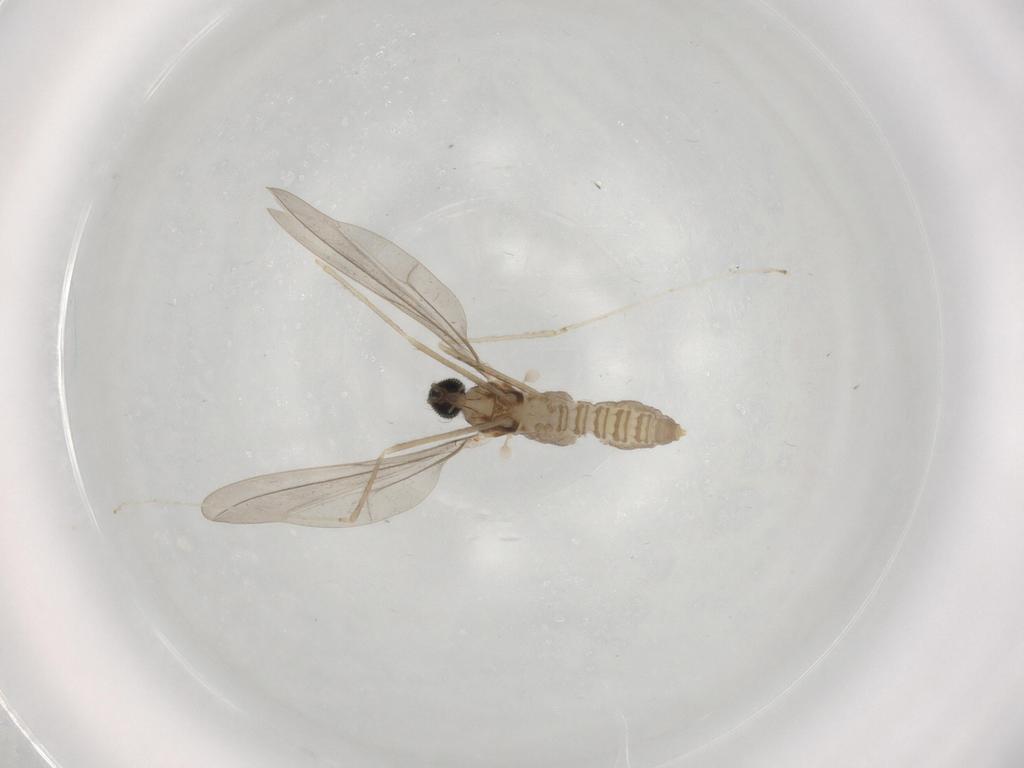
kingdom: Animalia
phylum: Arthropoda
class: Insecta
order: Diptera
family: Cecidomyiidae
